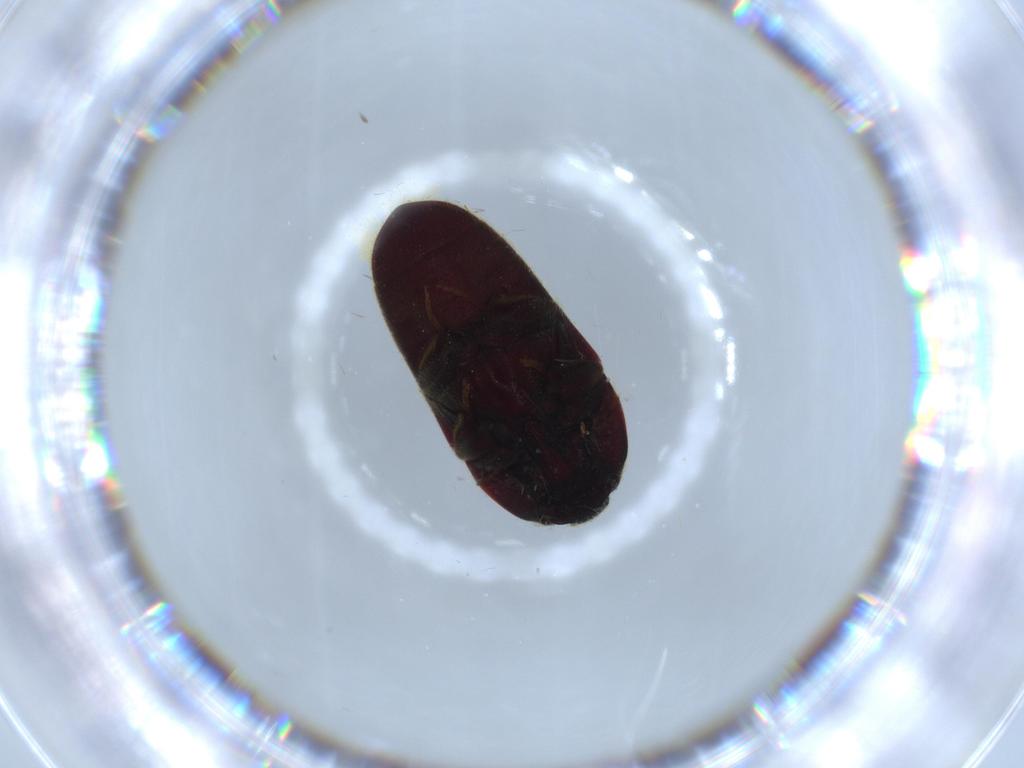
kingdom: Animalia
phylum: Arthropoda
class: Insecta
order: Coleoptera
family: Throscidae
